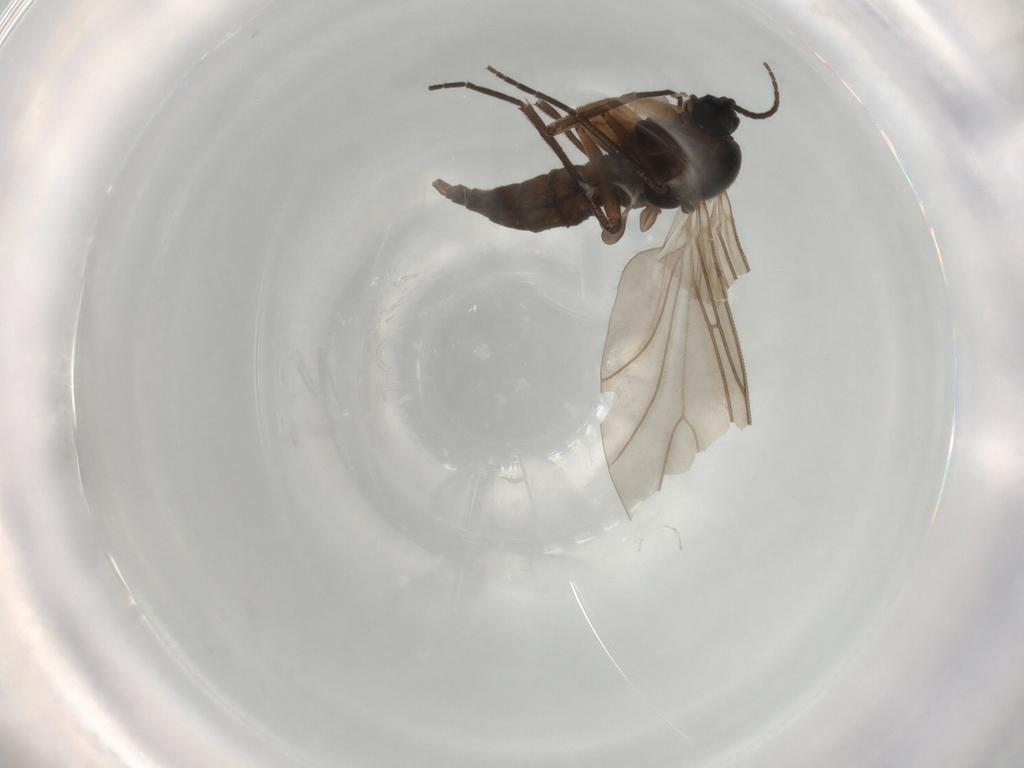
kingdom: Animalia
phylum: Arthropoda
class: Insecta
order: Diptera
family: Sciaridae
